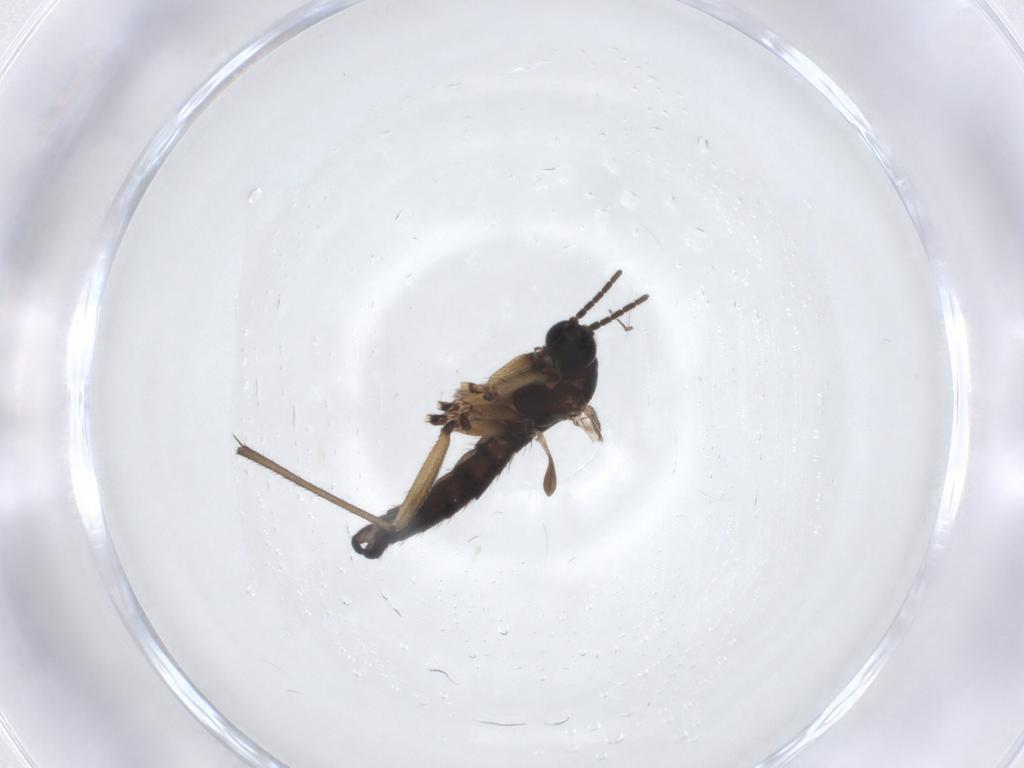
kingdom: Animalia
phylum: Arthropoda
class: Insecta
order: Diptera
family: Sciaridae
